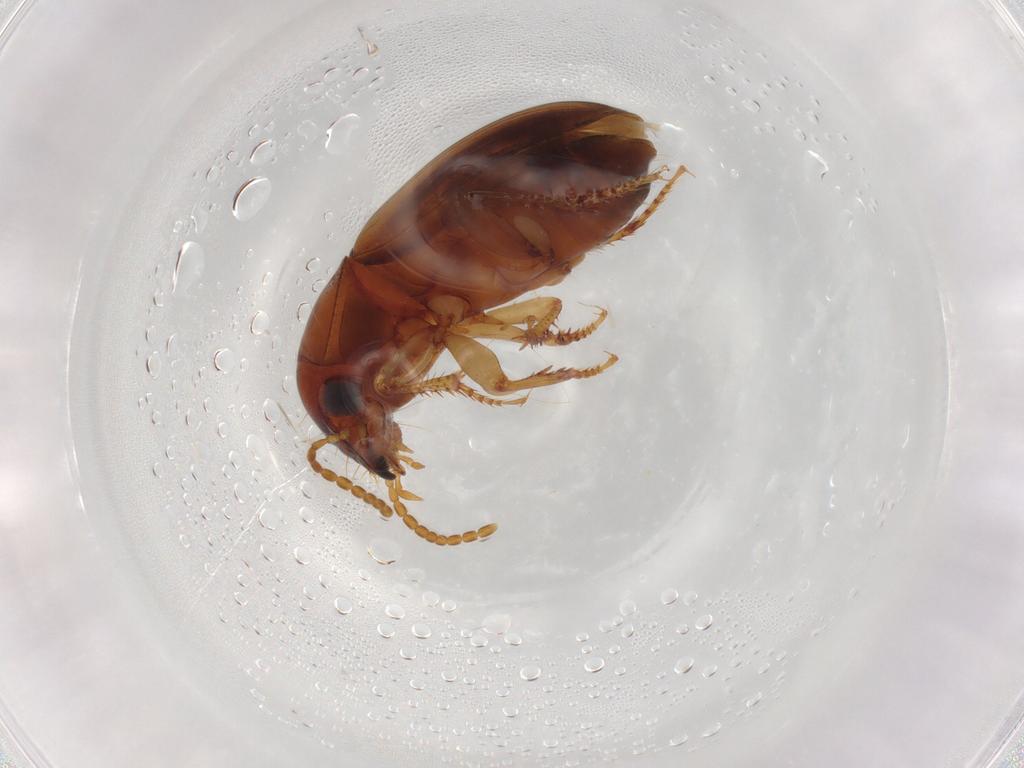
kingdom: Animalia
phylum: Arthropoda
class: Insecta
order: Coleoptera
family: Carabidae
